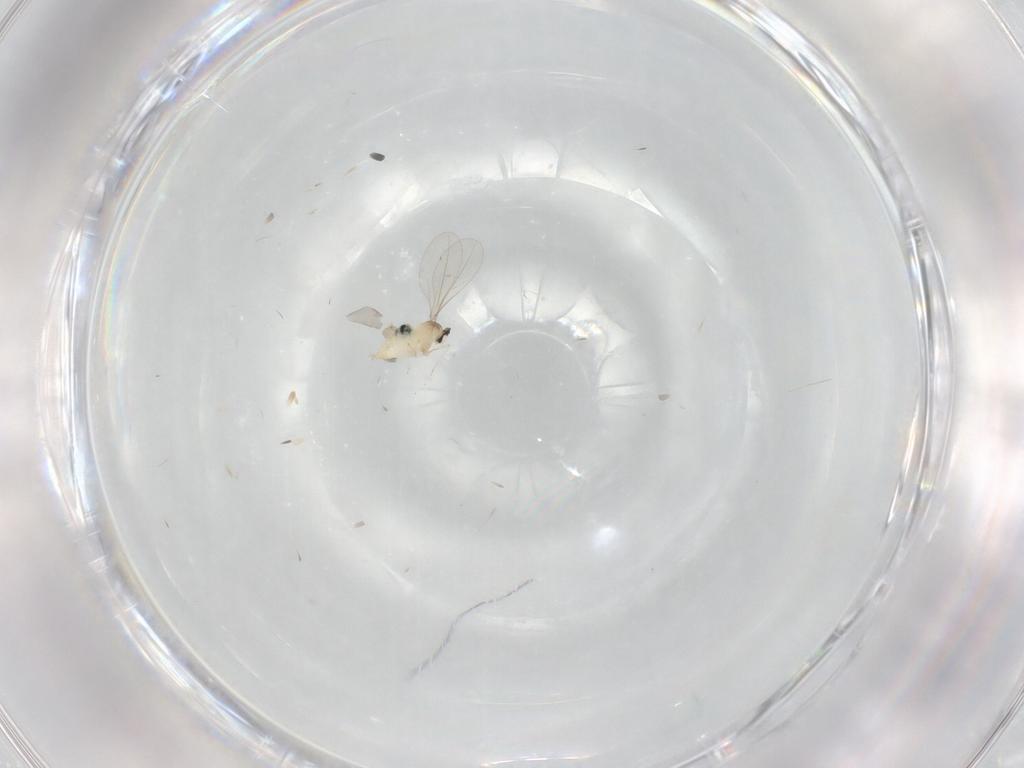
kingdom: Animalia
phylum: Arthropoda
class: Insecta
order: Diptera
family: Cecidomyiidae
